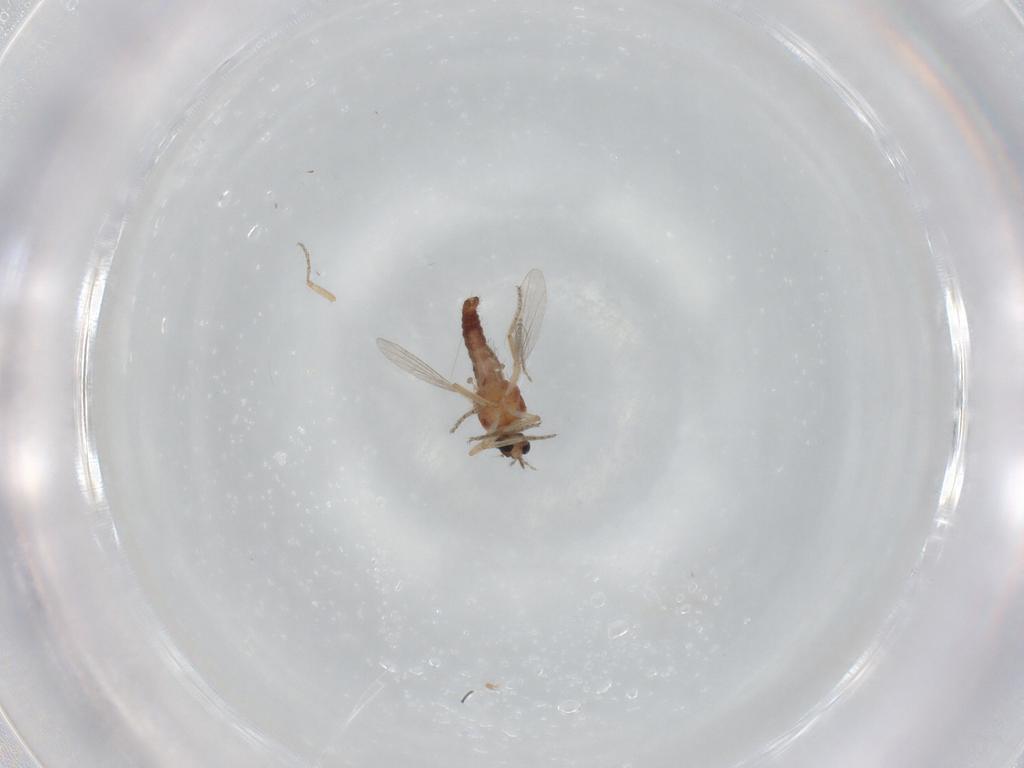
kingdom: Animalia
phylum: Arthropoda
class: Insecta
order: Diptera
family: Ceratopogonidae
